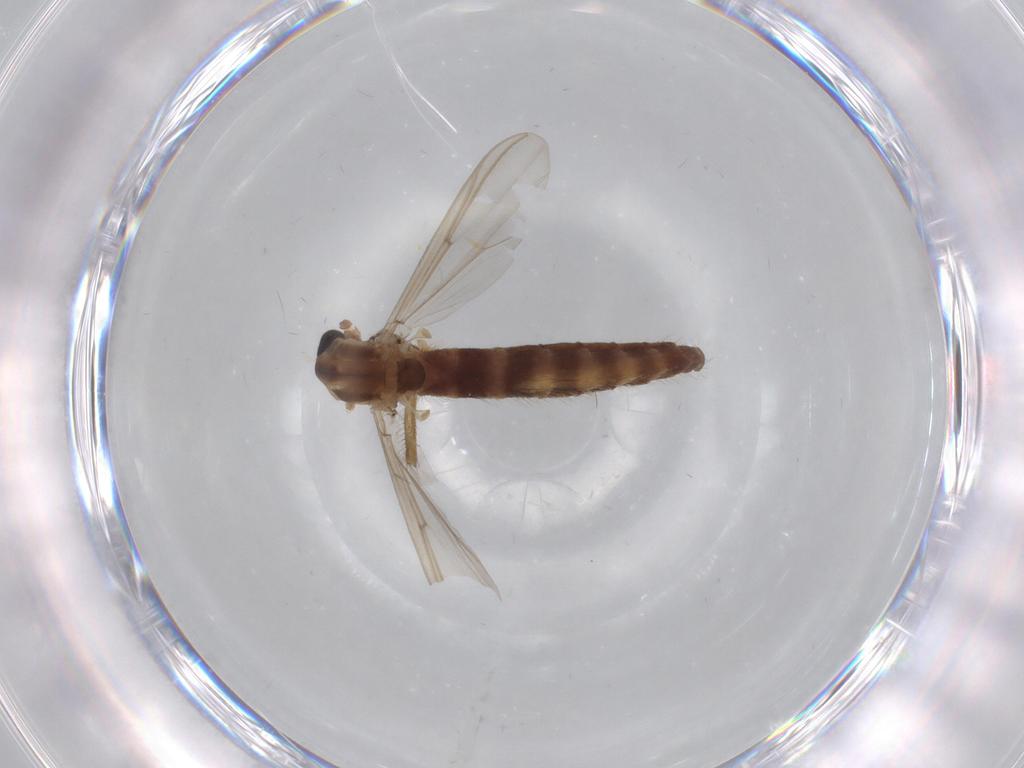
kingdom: Animalia
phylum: Arthropoda
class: Insecta
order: Diptera
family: Chironomidae
